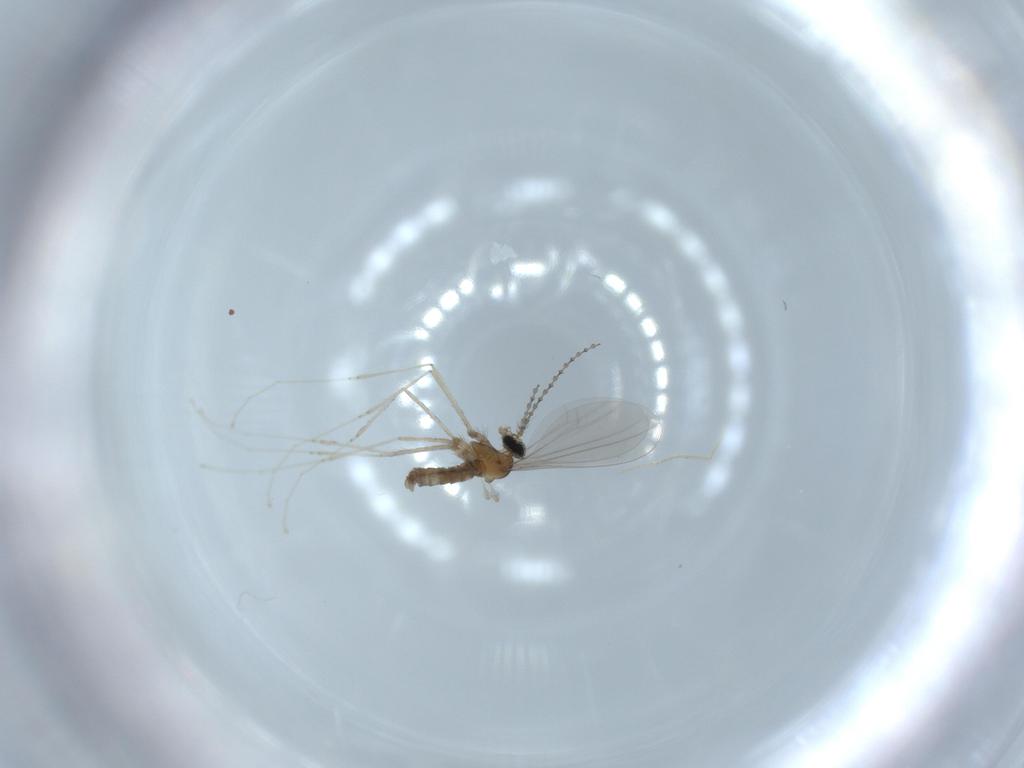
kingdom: Animalia
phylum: Arthropoda
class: Insecta
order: Diptera
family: Cecidomyiidae
